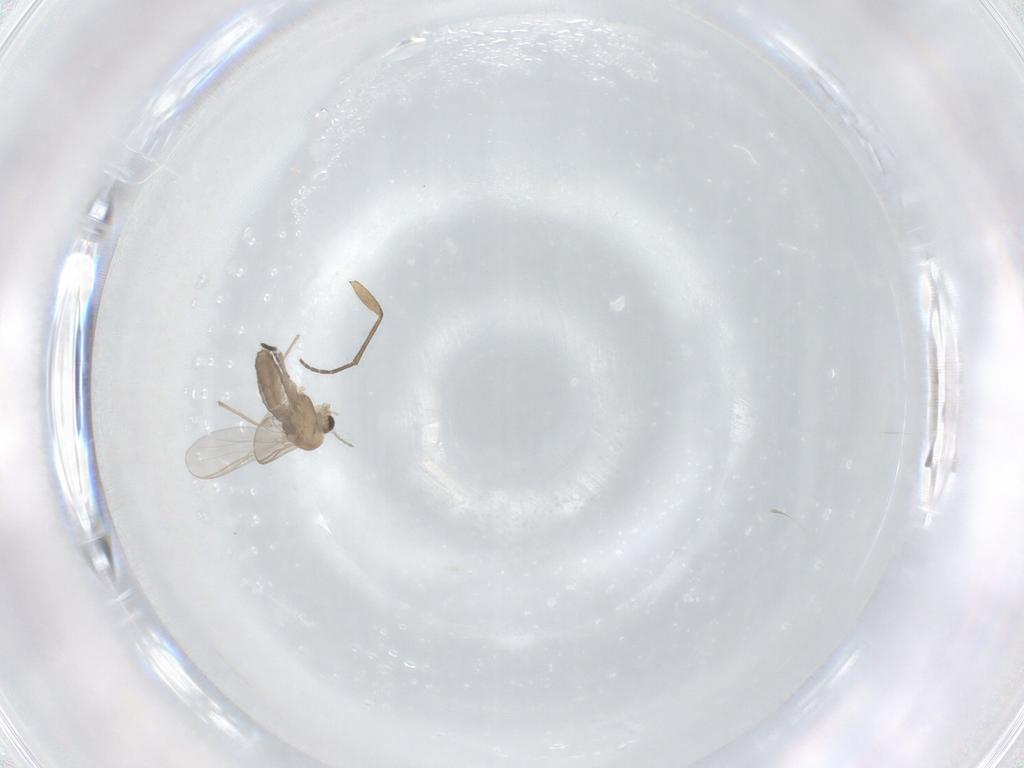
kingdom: Animalia
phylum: Arthropoda
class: Insecta
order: Diptera
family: Chironomidae
